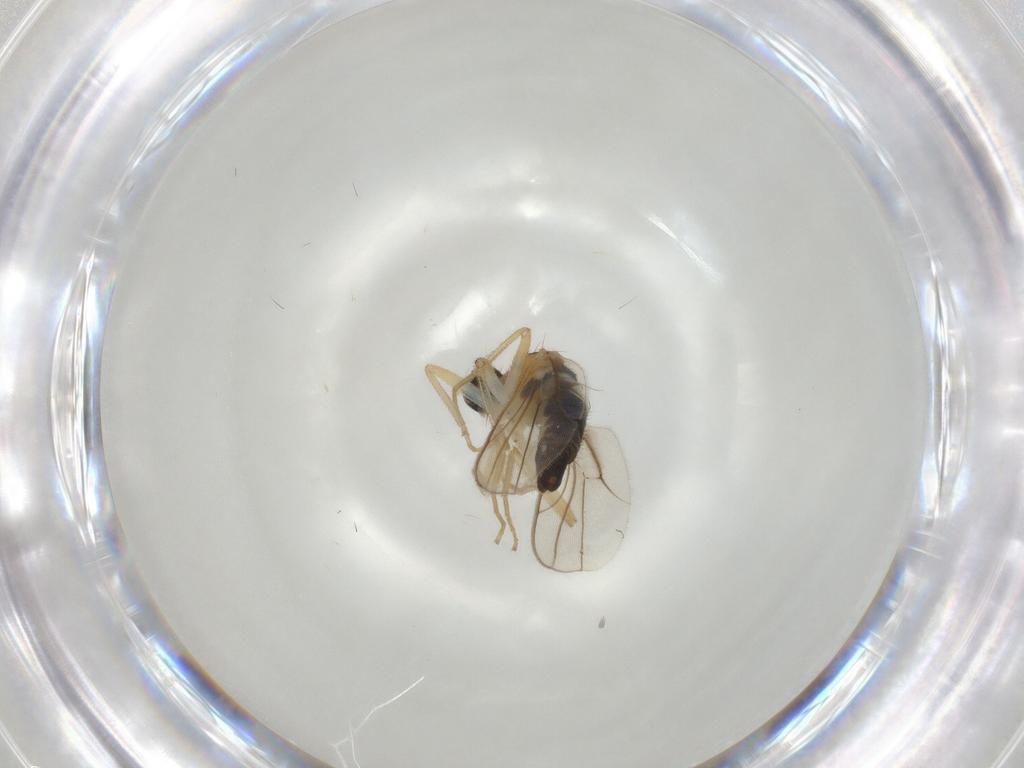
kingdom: Animalia
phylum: Arthropoda
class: Insecta
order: Diptera
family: Hybotidae
